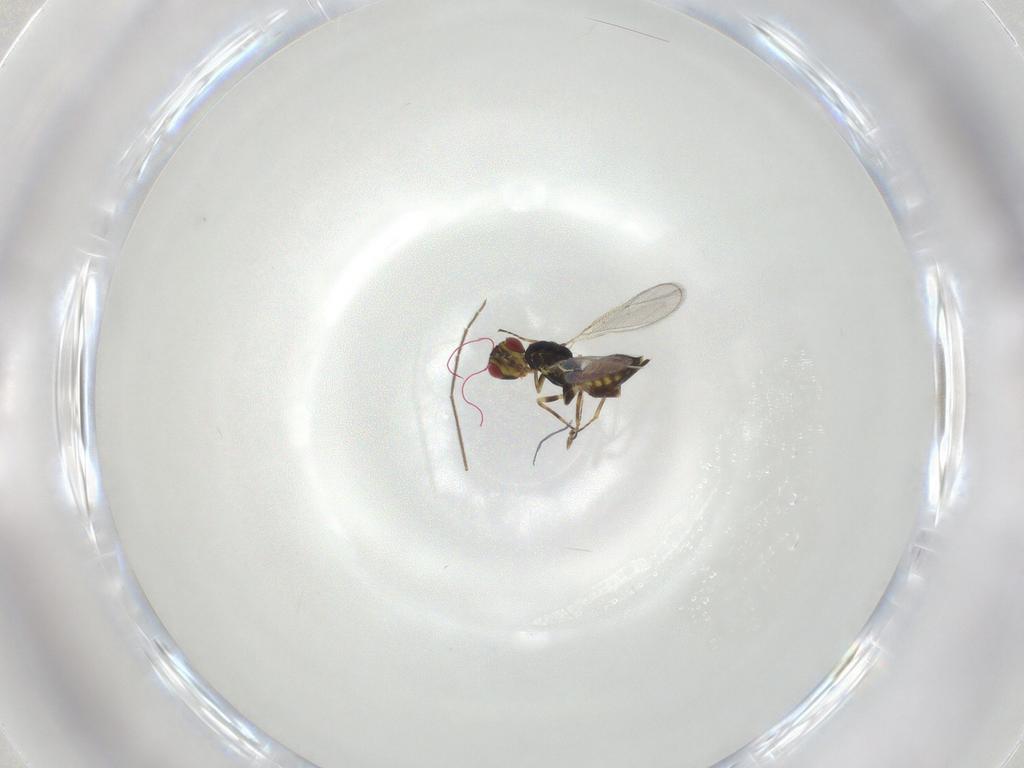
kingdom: Animalia
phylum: Arthropoda
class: Insecta
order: Hymenoptera
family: Eulophidae
